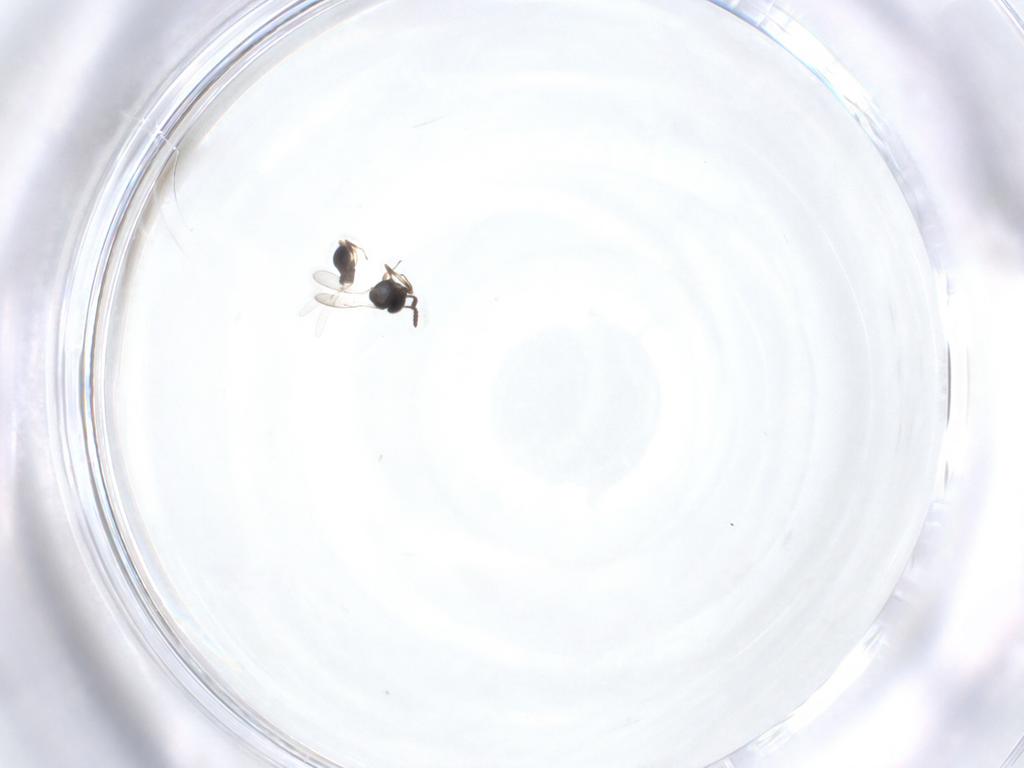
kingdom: Animalia
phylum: Arthropoda
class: Insecta
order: Hymenoptera
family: Scelionidae
